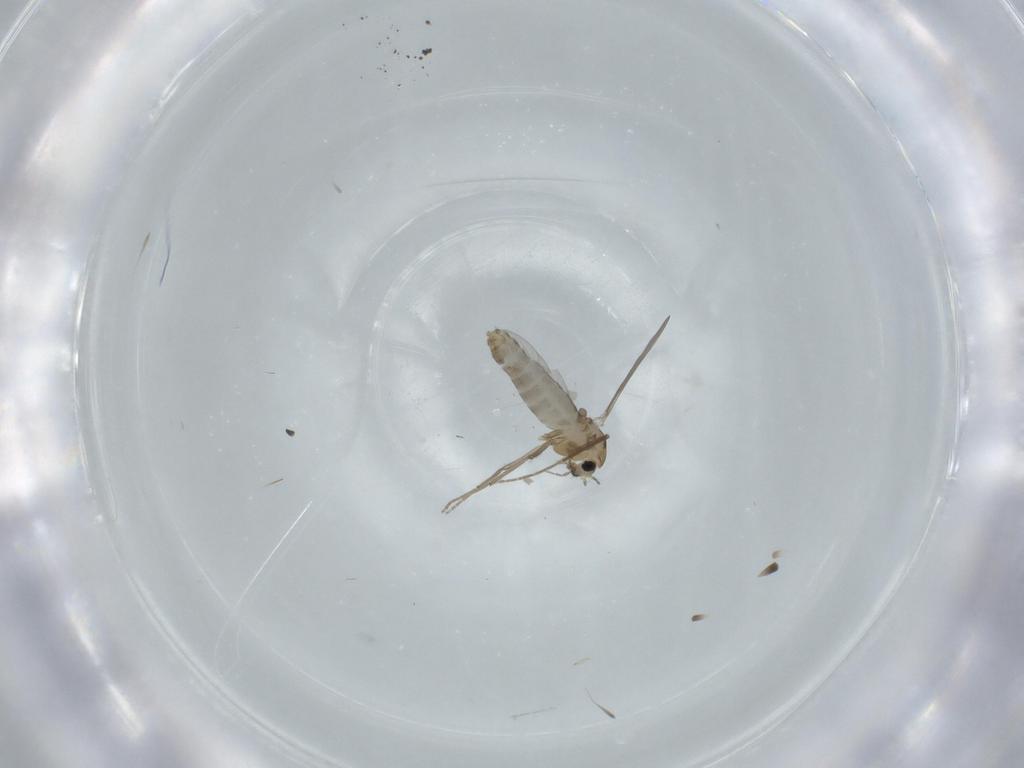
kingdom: Animalia
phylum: Arthropoda
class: Insecta
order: Diptera
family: Chironomidae
